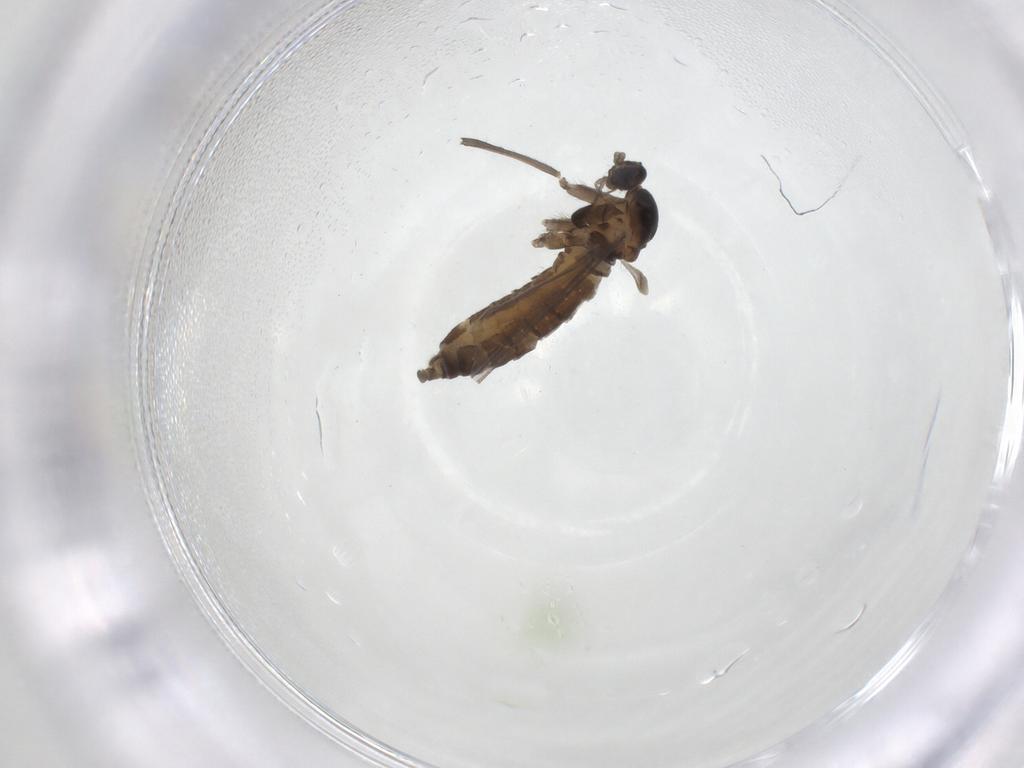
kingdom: Animalia
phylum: Arthropoda
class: Insecta
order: Diptera
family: Cecidomyiidae
